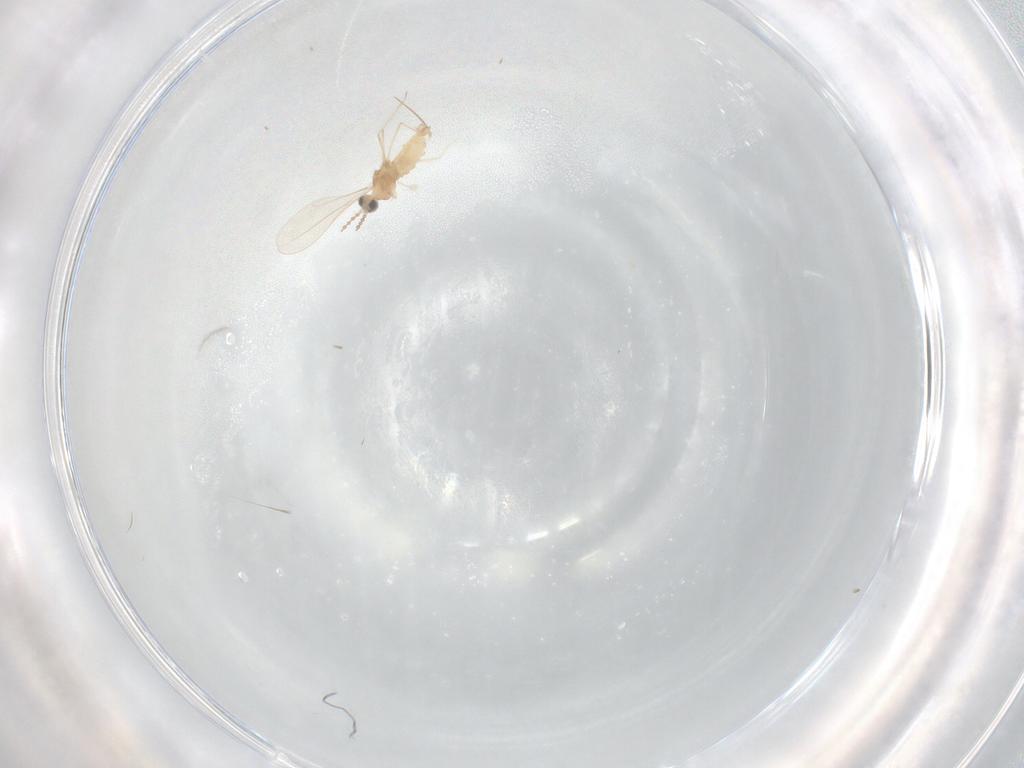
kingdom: Animalia
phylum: Arthropoda
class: Insecta
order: Diptera
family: Cecidomyiidae
